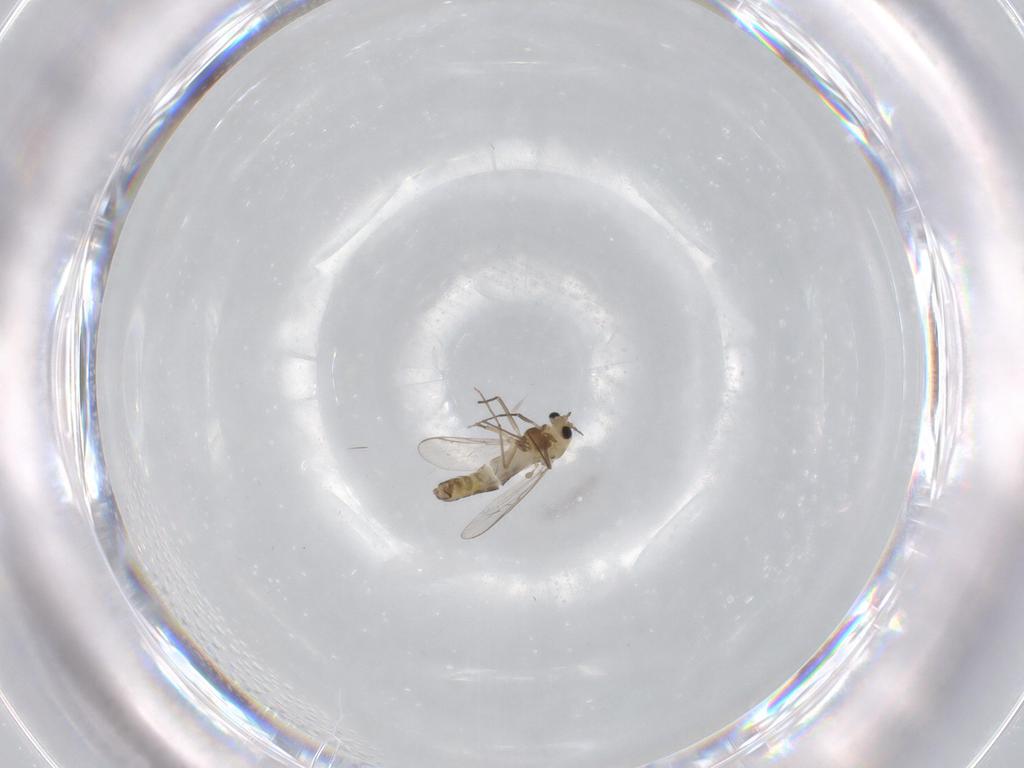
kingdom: Animalia
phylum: Arthropoda
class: Insecta
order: Diptera
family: Chironomidae
